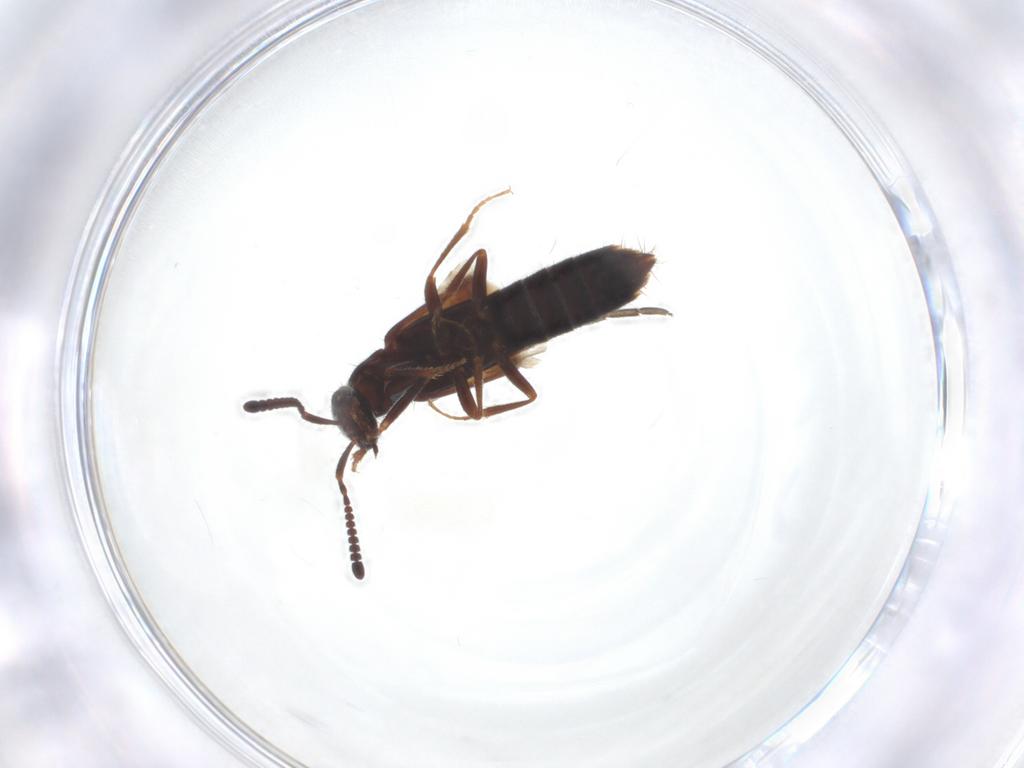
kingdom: Animalia
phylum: Arthropoda
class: Insecta
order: Coleoptera
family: Staphylinidae
